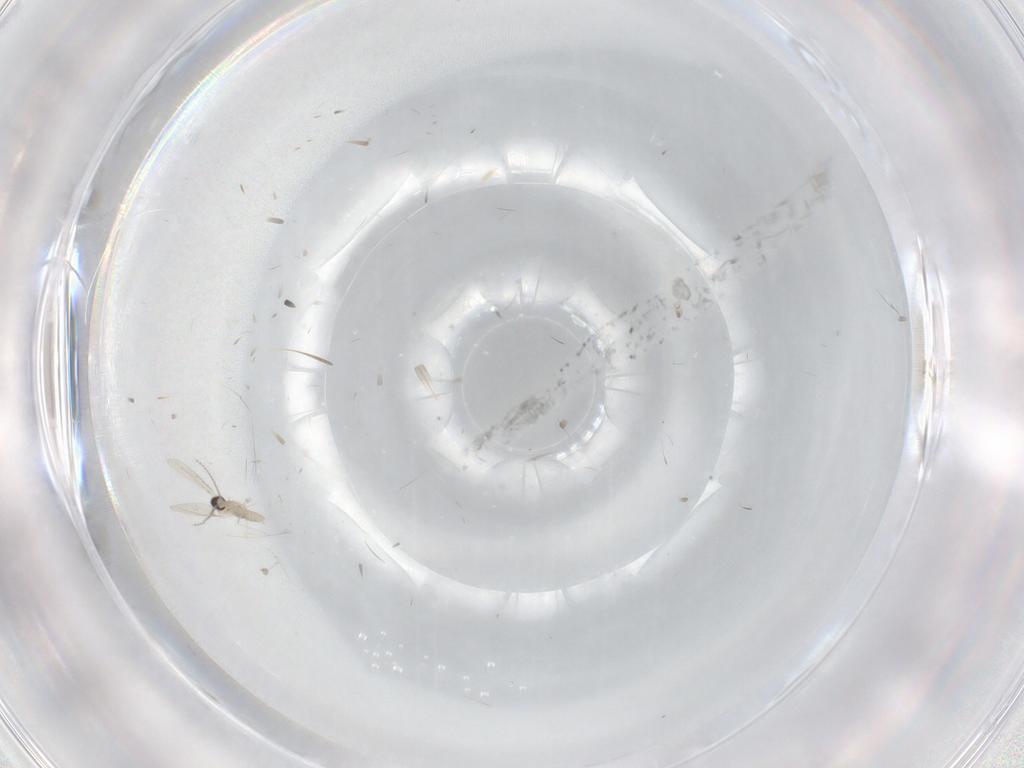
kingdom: Animalia
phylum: Arthropoda
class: Insecta
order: Diptera
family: Cecidomyiidae
